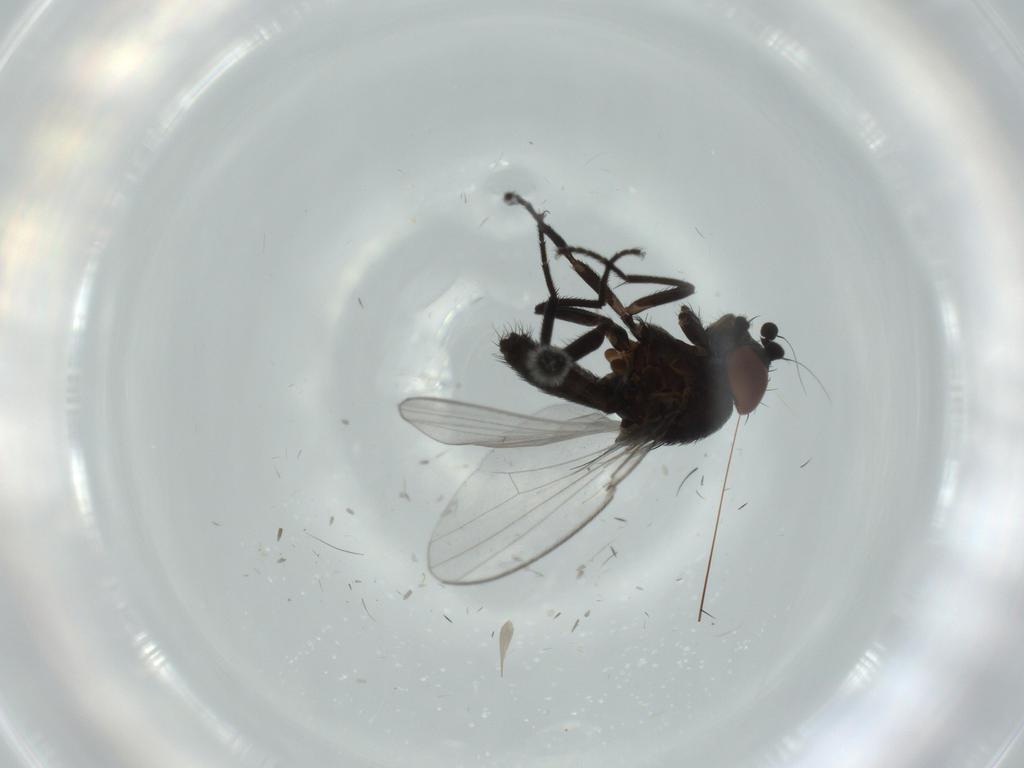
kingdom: Animalia
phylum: Arthropoda
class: Insecta
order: Diptera
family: Milichiidae
